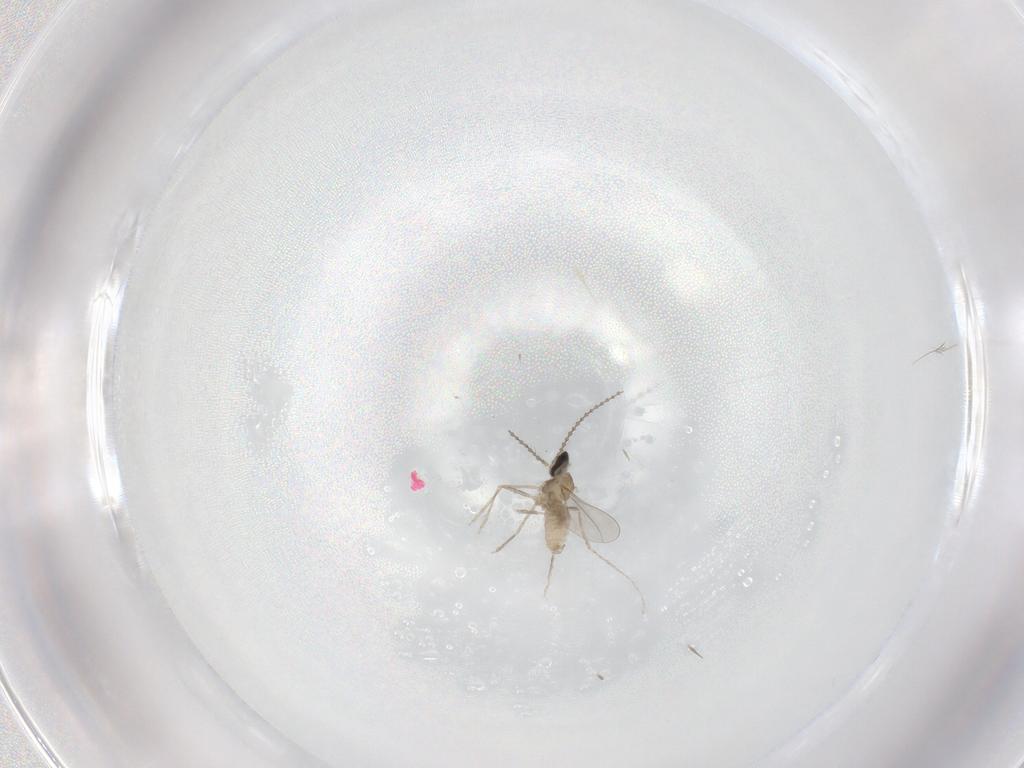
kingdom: Animalia
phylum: Arthropoda
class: Insecta
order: Diptera
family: Cecidomyiidae
